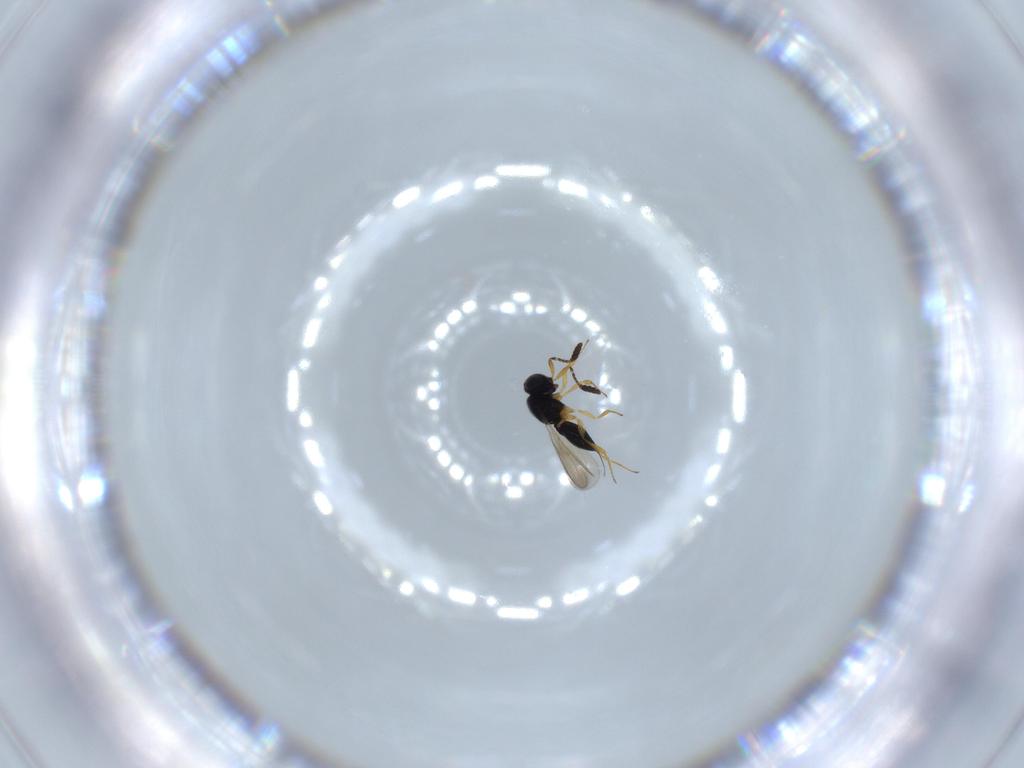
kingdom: Animalia
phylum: Arthropoda
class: Insecta
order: Hymenoptera
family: Scelionidae
